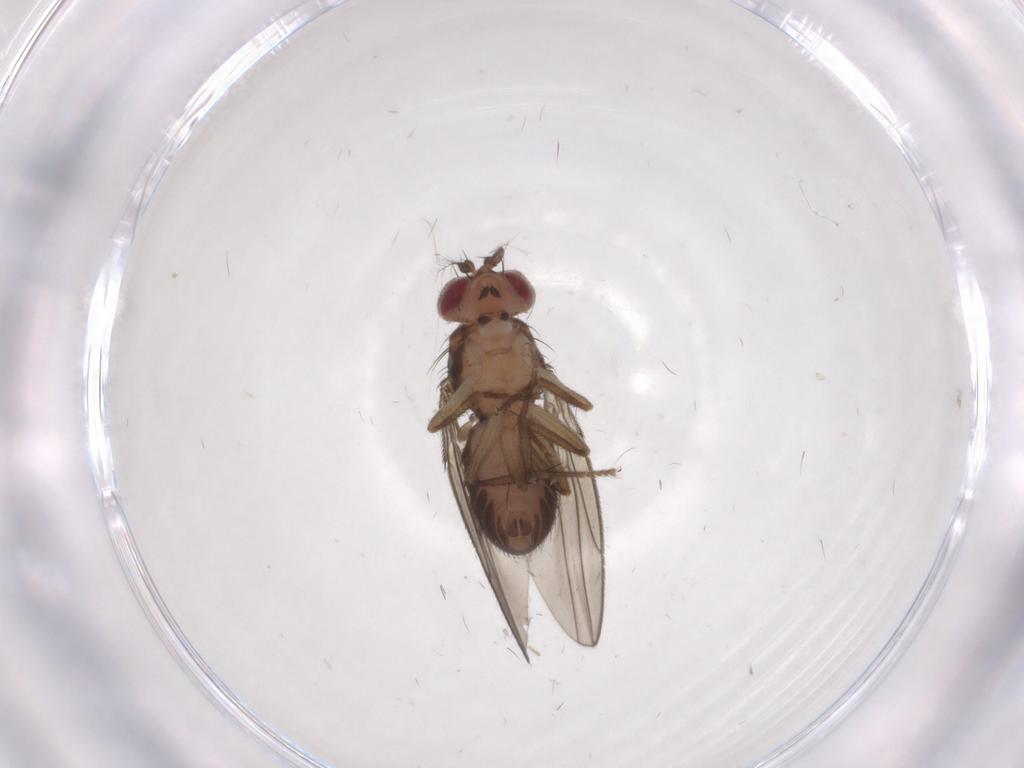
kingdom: Animalia
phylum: Arthropoda
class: Insecta
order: Diptera
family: Drosophilidae
